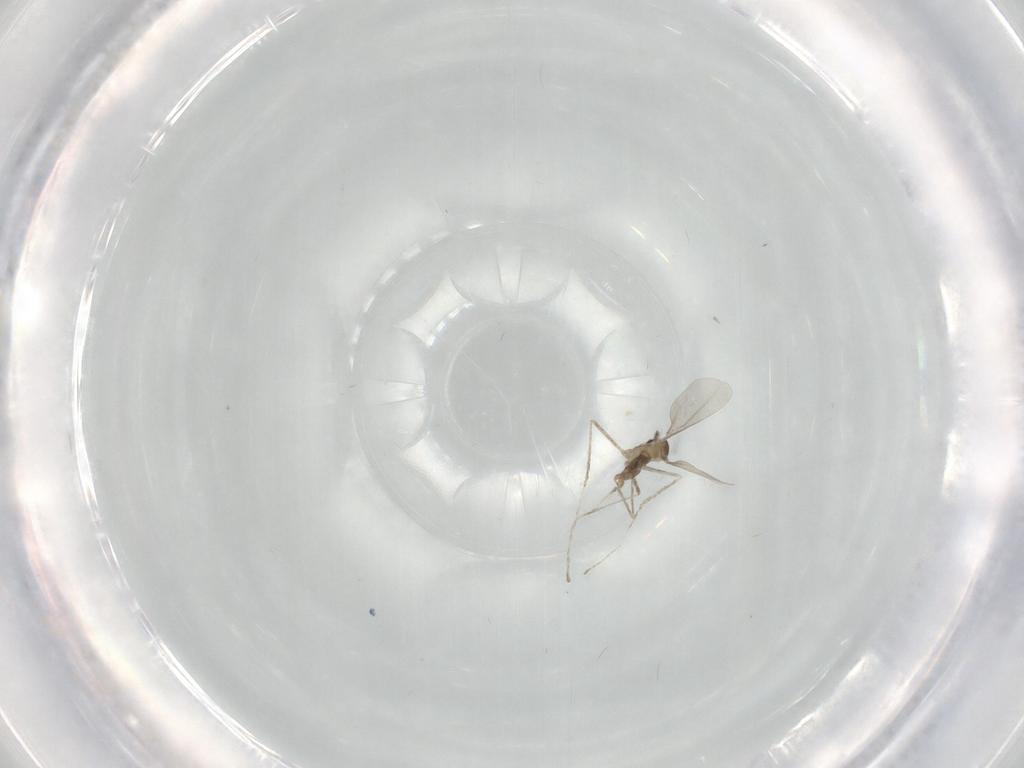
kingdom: Animalia
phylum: Arthropoda
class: Insecta
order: Diptera
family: Cecidomyiidae
